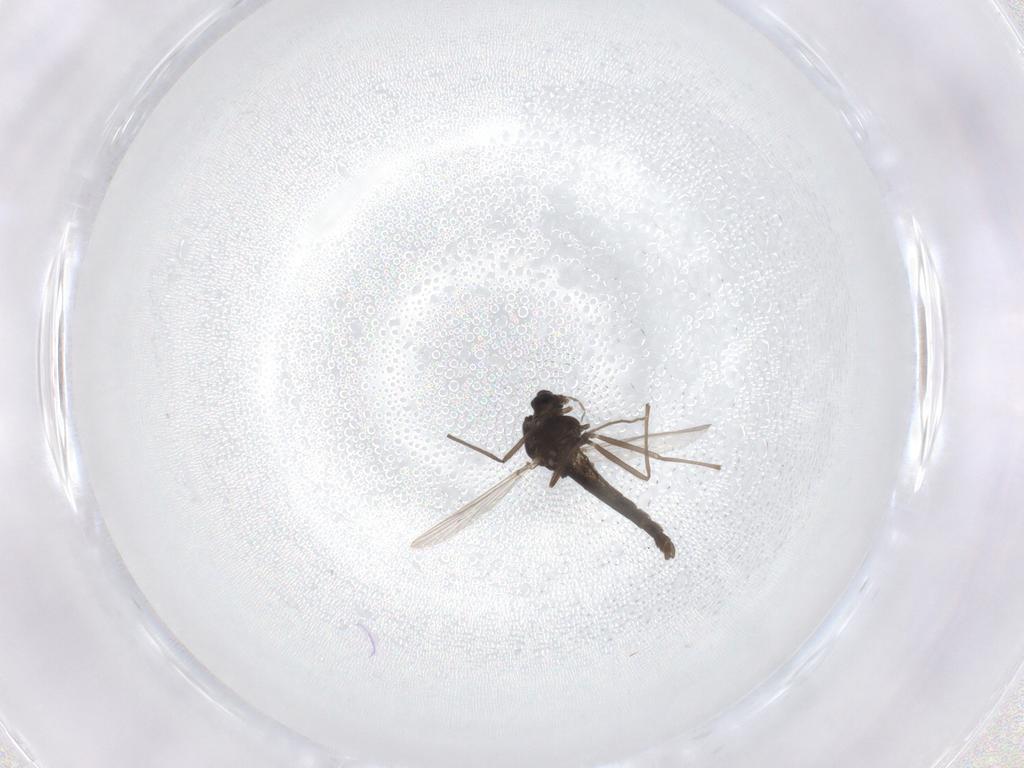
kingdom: Animalia
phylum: Arthropoda
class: Insecta
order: Diptera
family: Chironomidae
